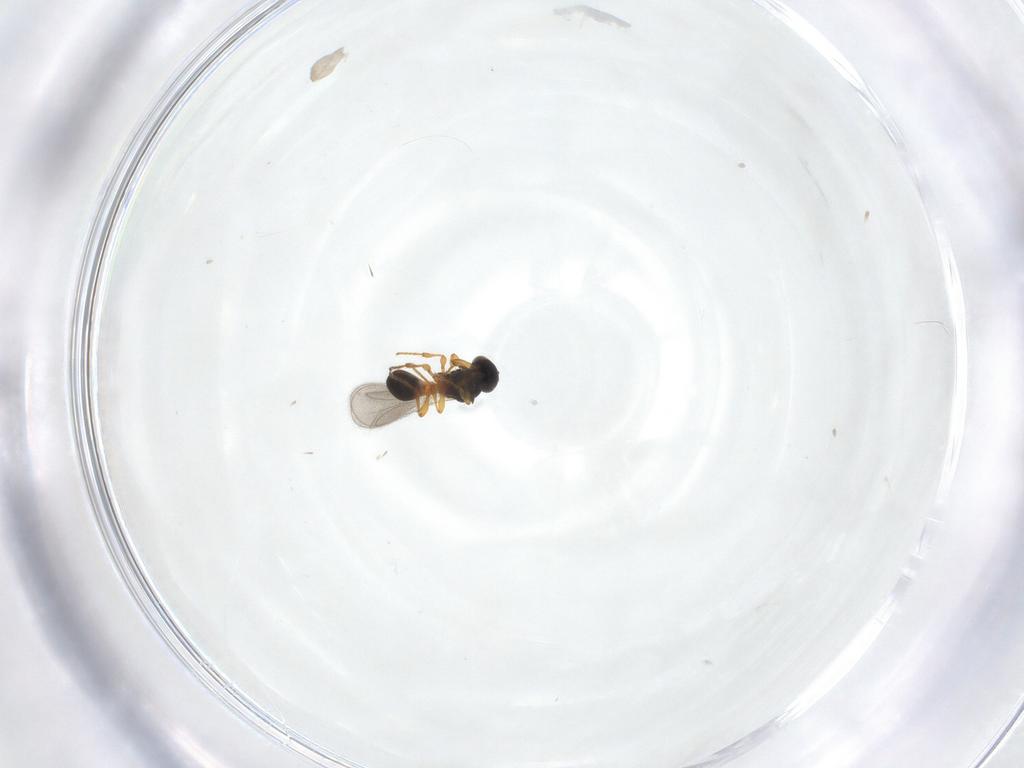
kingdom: Animalia
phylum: Arthropoda
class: Insecta
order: Hymenoptera
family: Platygastridae
